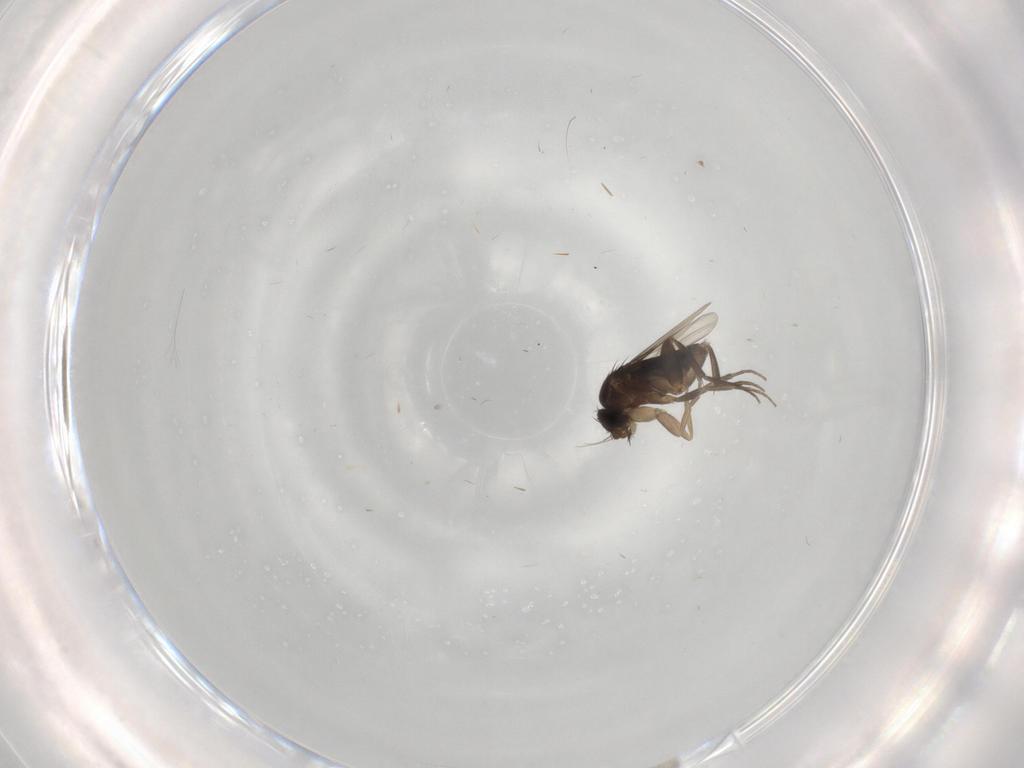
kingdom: Animalia
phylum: Arthropoda
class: Insecta
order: Diptera
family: Phoridae
